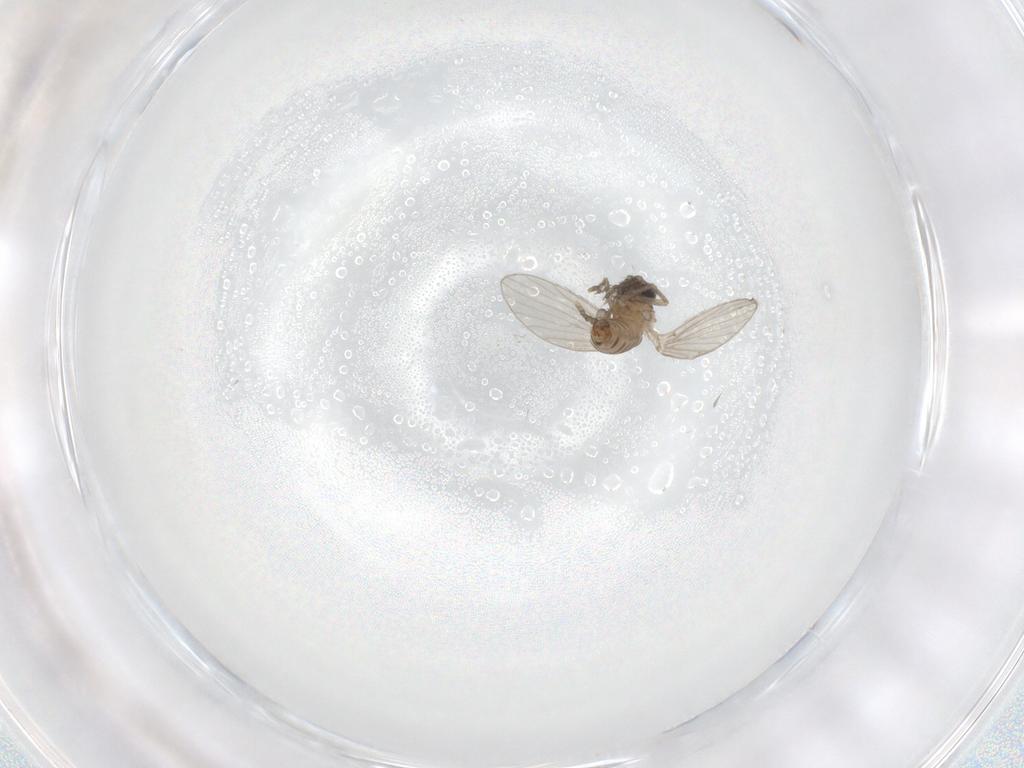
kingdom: Animalia
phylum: Arthropoda
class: Insecta
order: Diptera
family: Psychodidae
